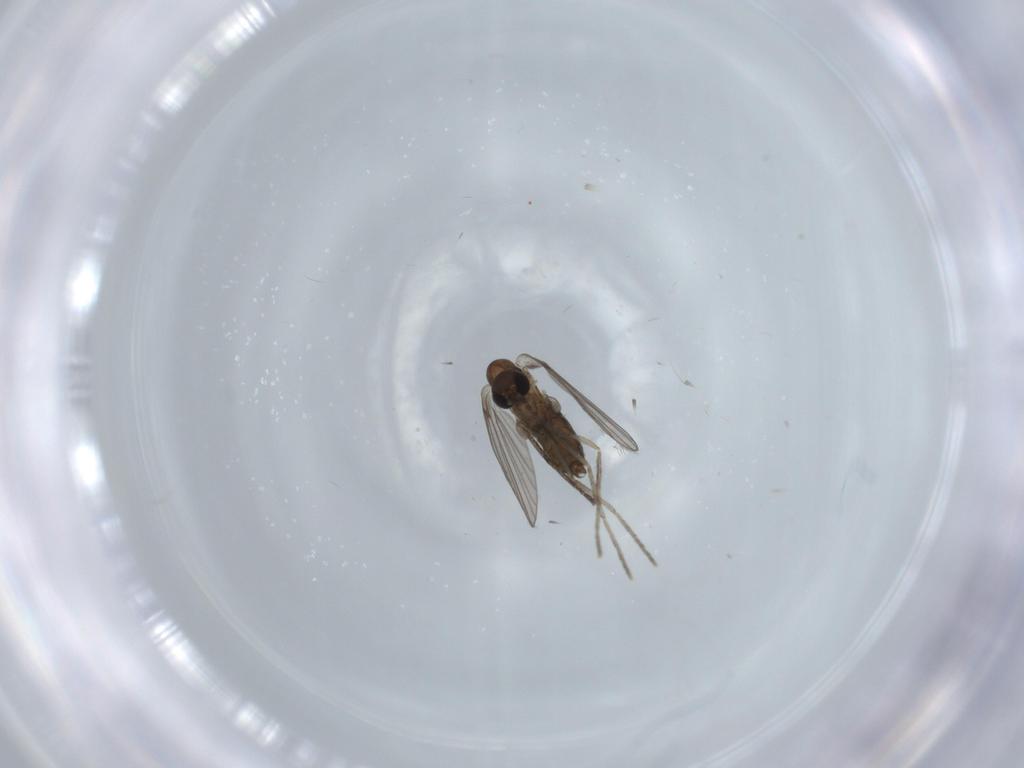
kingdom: Animalia
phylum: Arthropoda
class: Insecta
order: Diptera
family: Psychodidae
